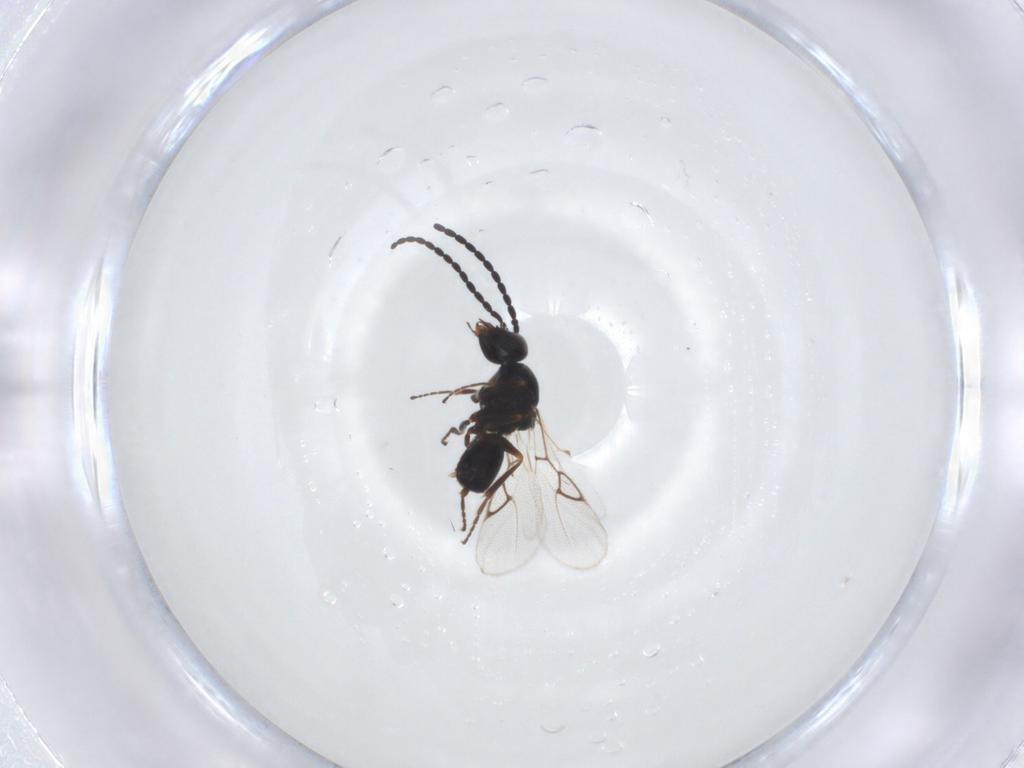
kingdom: Animalia
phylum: Arthropoda
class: Insecta
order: Hymenoptera
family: Figitidae
